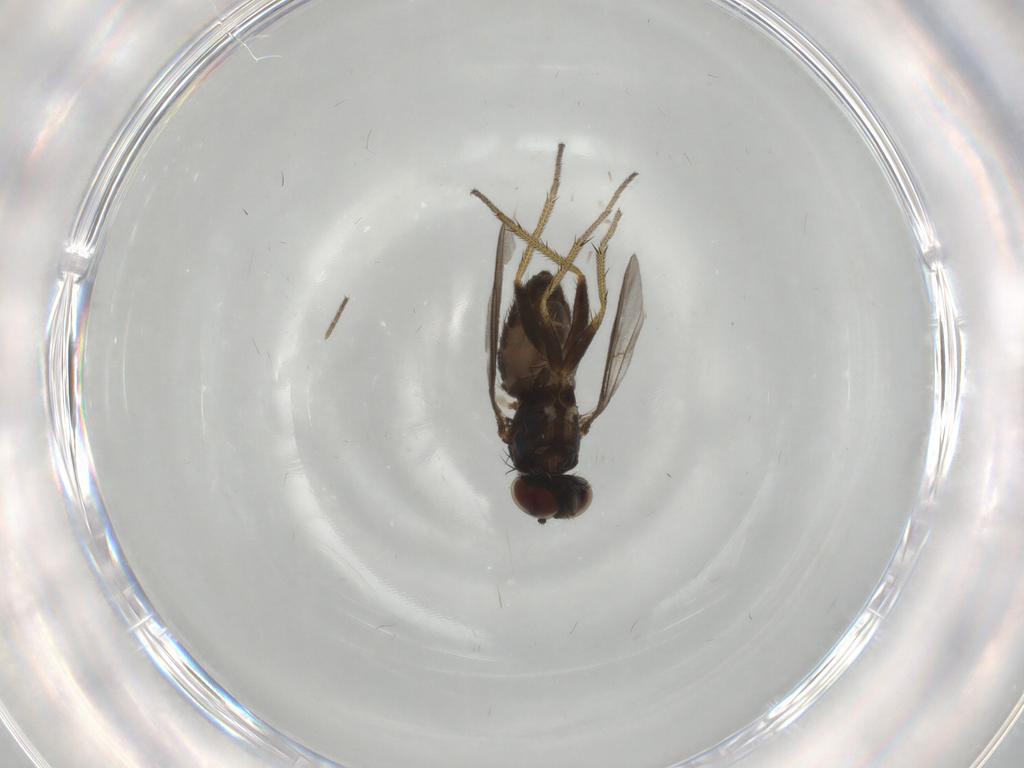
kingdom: Animalia
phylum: Arthropoda
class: Insecta
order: Diptera
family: Dolichopodidae
